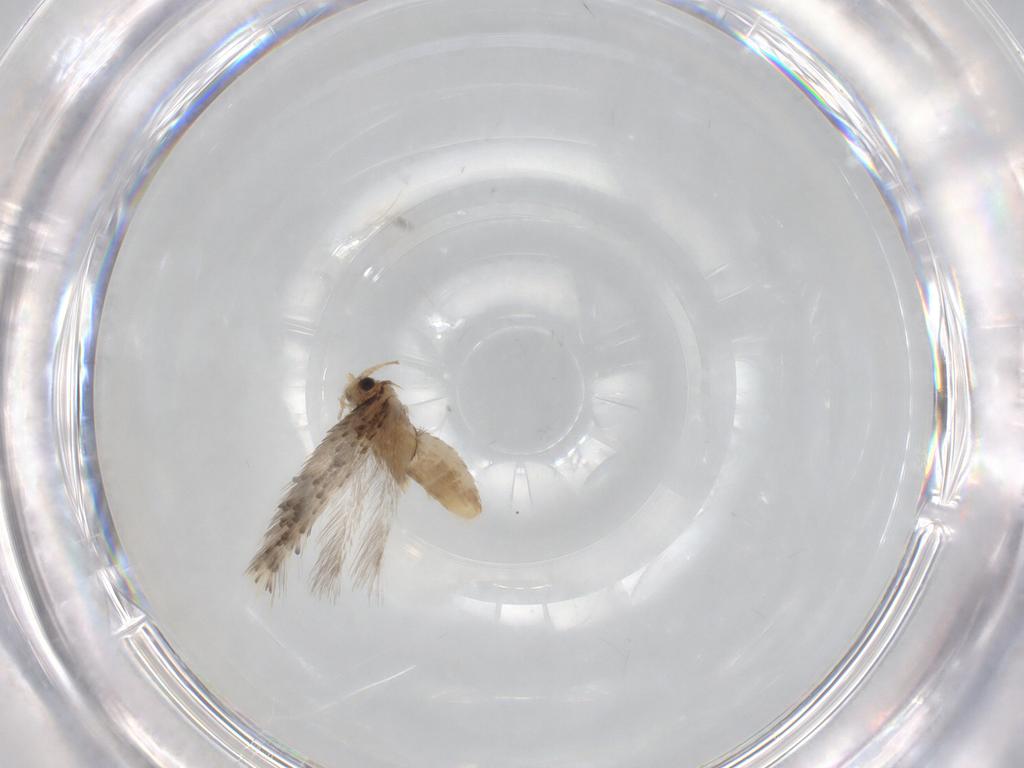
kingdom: Animalia
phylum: Arthropoda
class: Insecta
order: Lepidoptera
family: Nepticulidae
